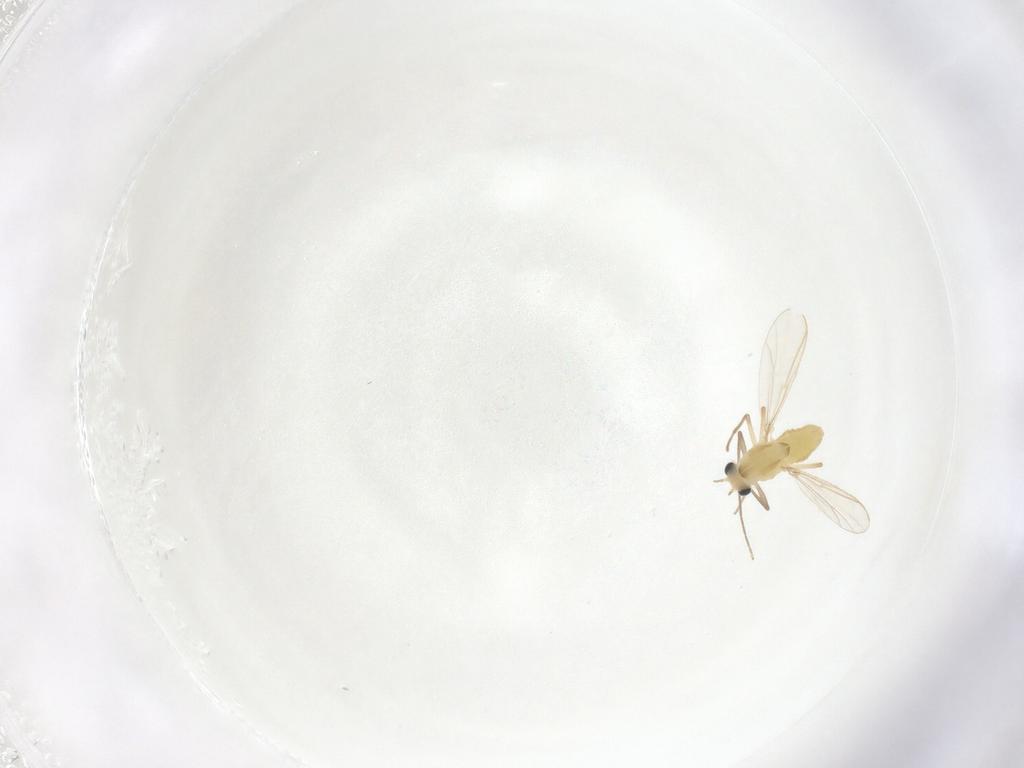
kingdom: Animalia
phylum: Arthropoda
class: Insecta
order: Diptera
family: Chironomidae
